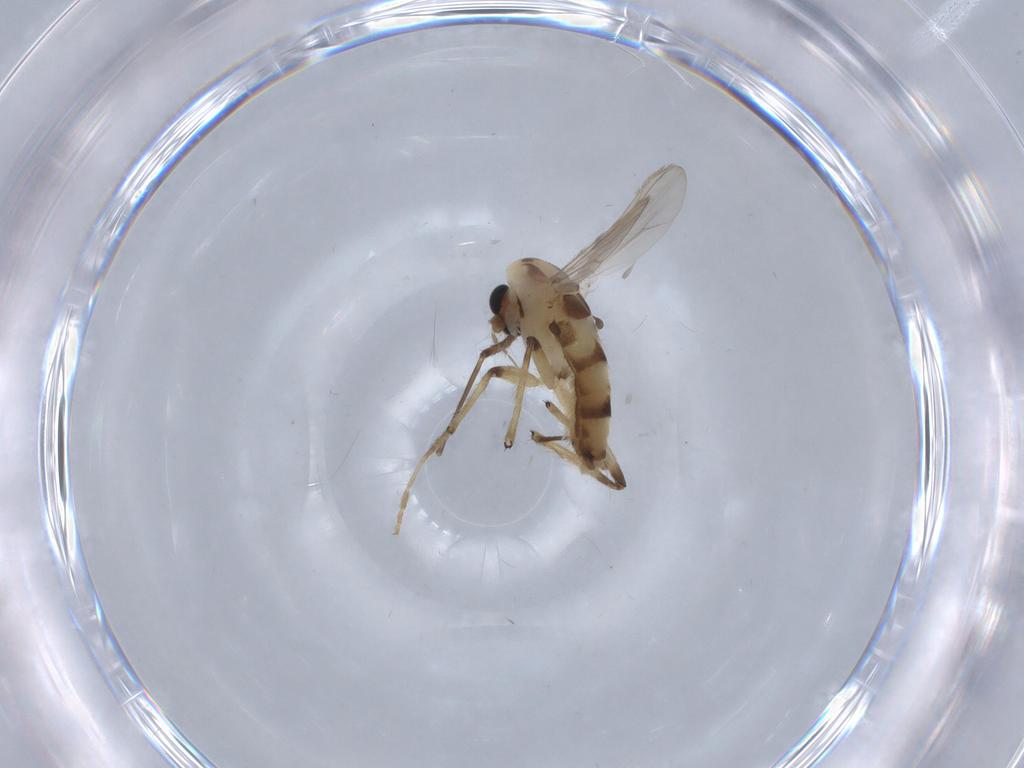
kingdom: Animalia
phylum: Arthropoda
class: Insecta
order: Diptera
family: Chironomidae
